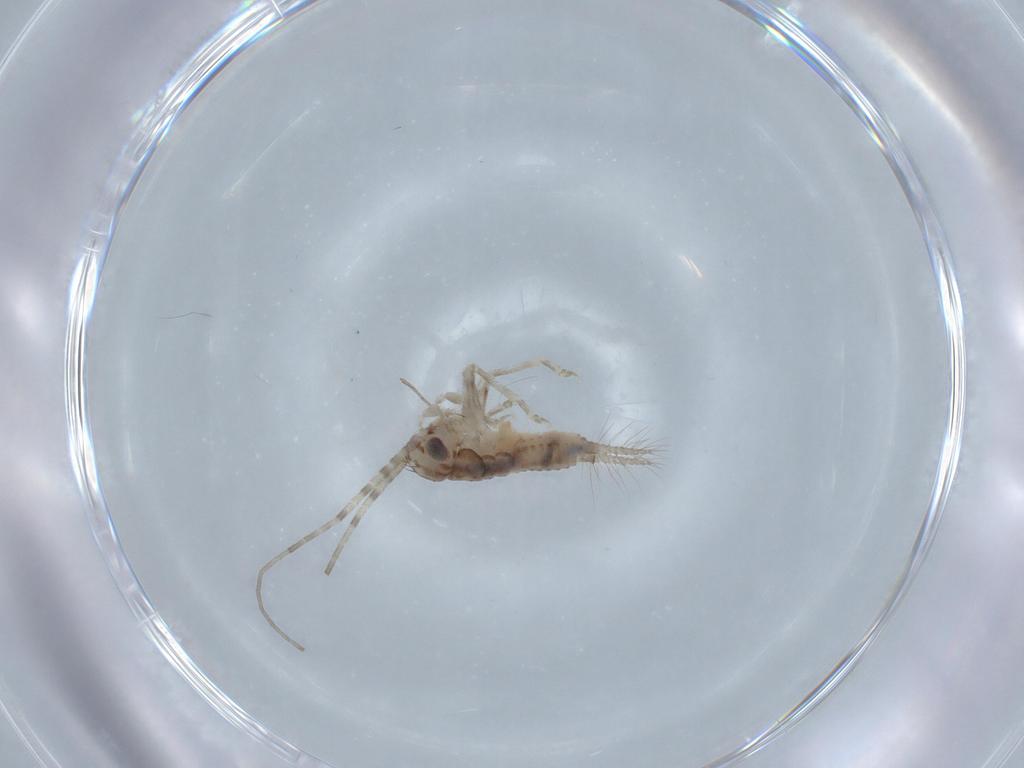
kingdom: Animalia
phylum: Arthropoda
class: Insecta
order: Orthoptera
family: Trigonidiidae
